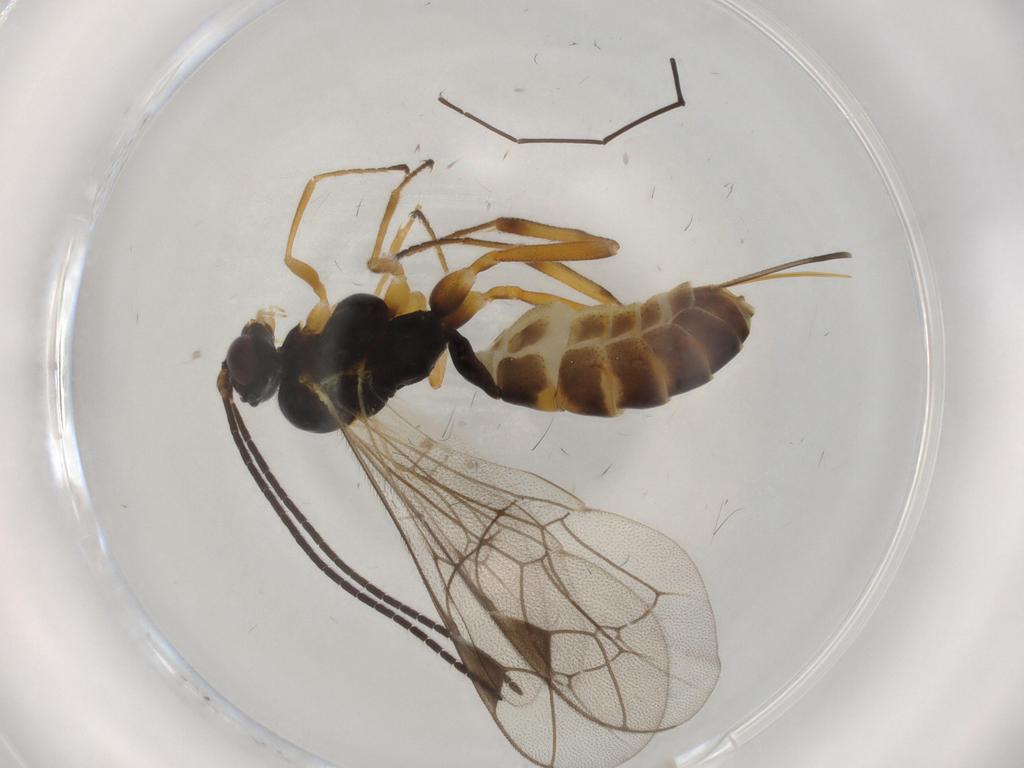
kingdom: Animalia
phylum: Arthropoda
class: Insecta
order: Hymenoptera
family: Ichneumonidae
